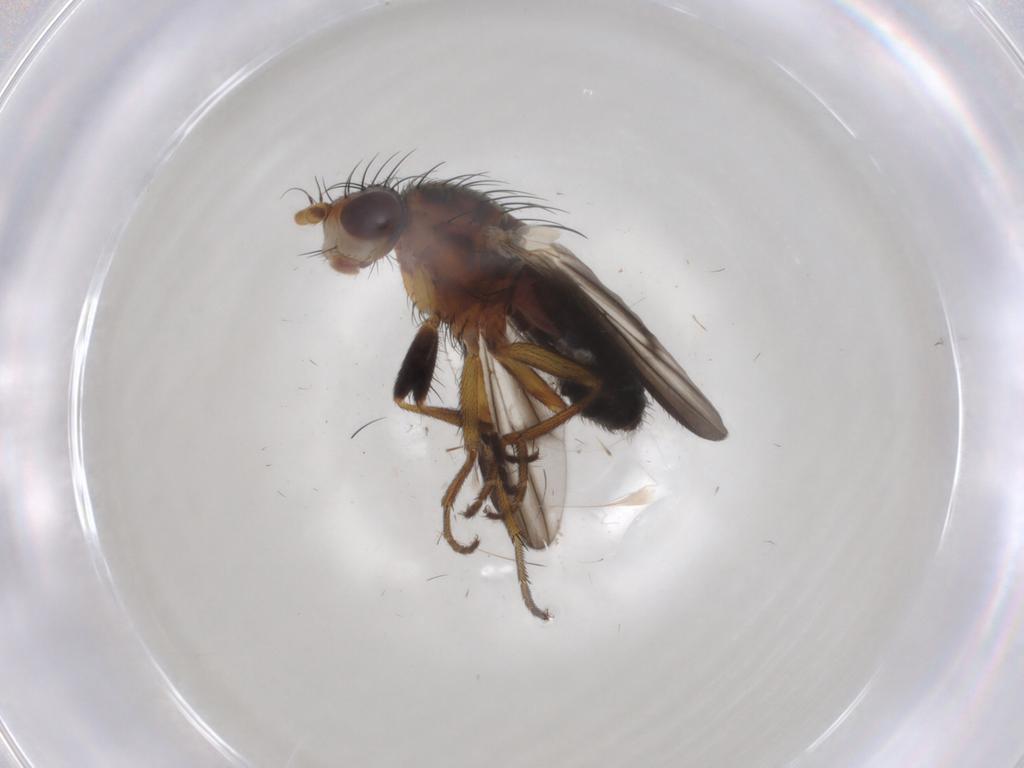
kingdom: Animalia
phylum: Arthropoda
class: Insecta
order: Diptera
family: Heleomyzidae
